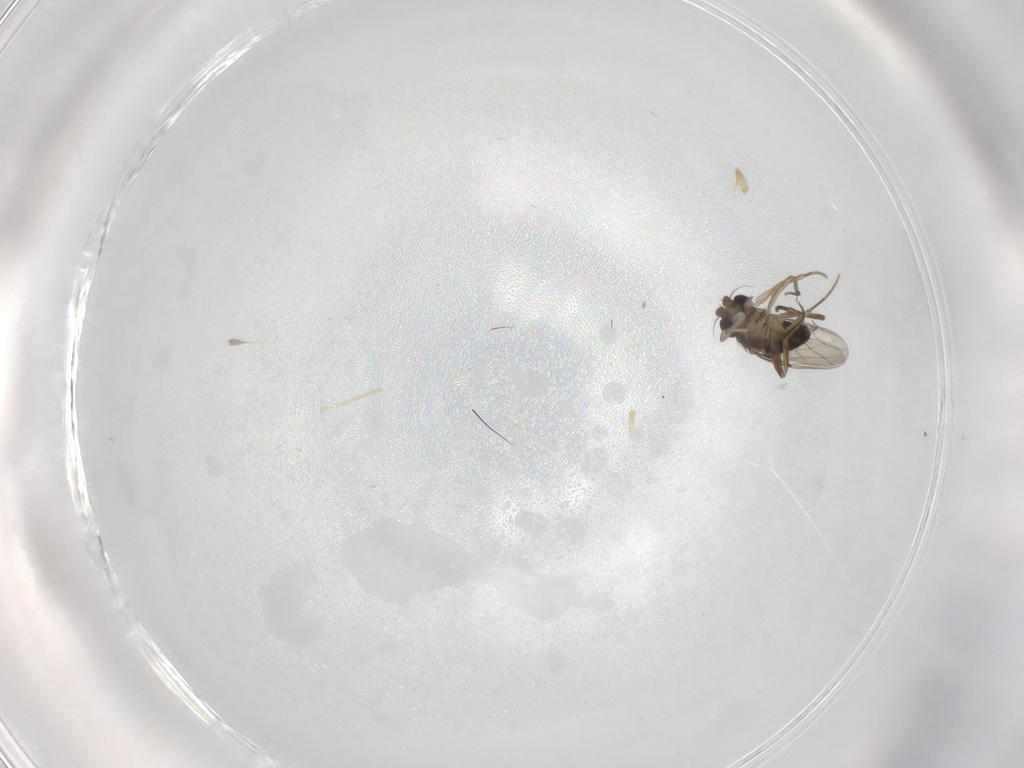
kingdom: Animalia
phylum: Arthropoda
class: Insecta
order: Diptera
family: Phoridae
